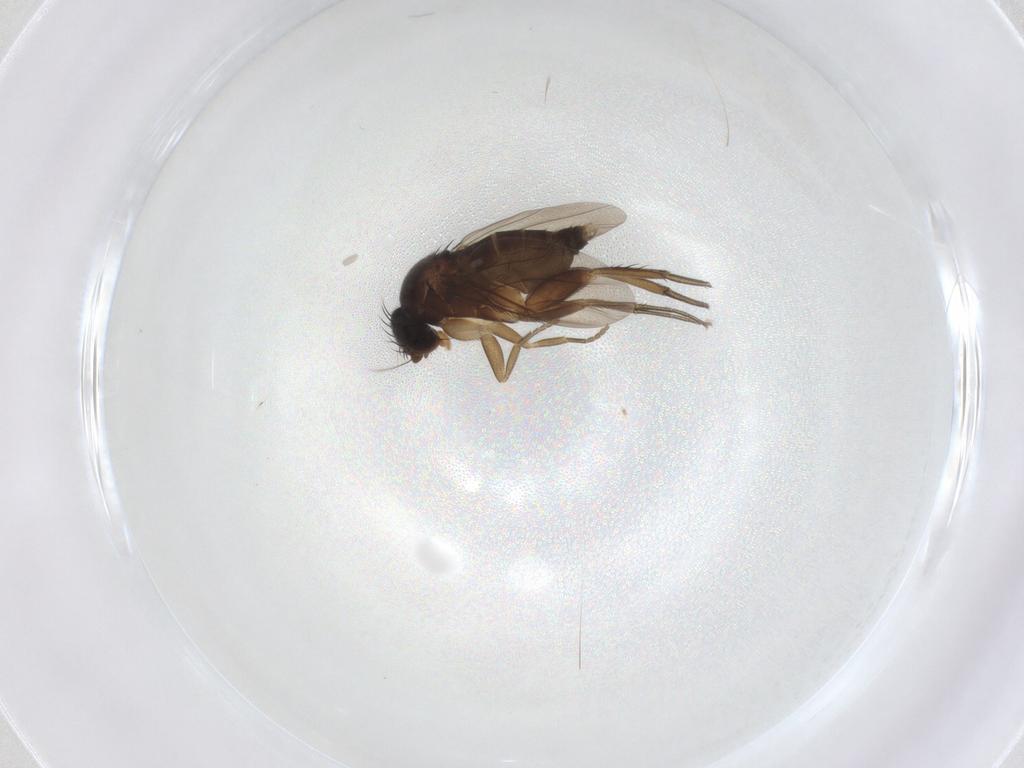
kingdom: Animalia
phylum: Arthropoda
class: Insecta
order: Diptera
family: Phoridae
